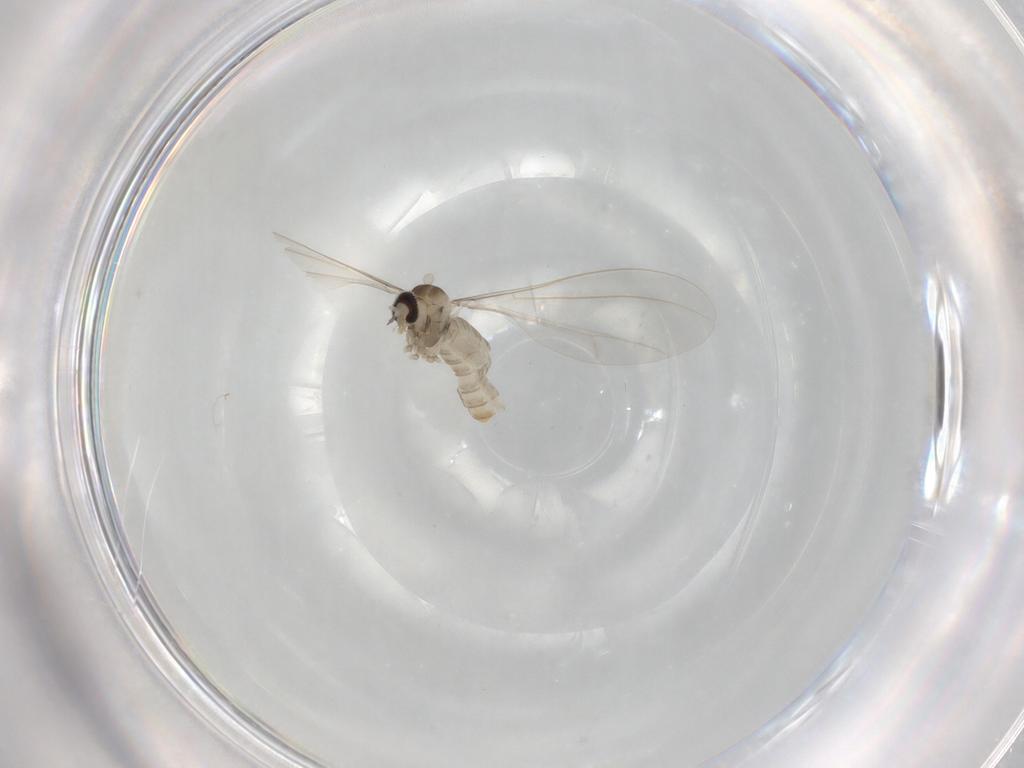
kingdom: Animalia
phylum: Arthropoda
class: Insecta
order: Diptera
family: Cecidomyiidae
